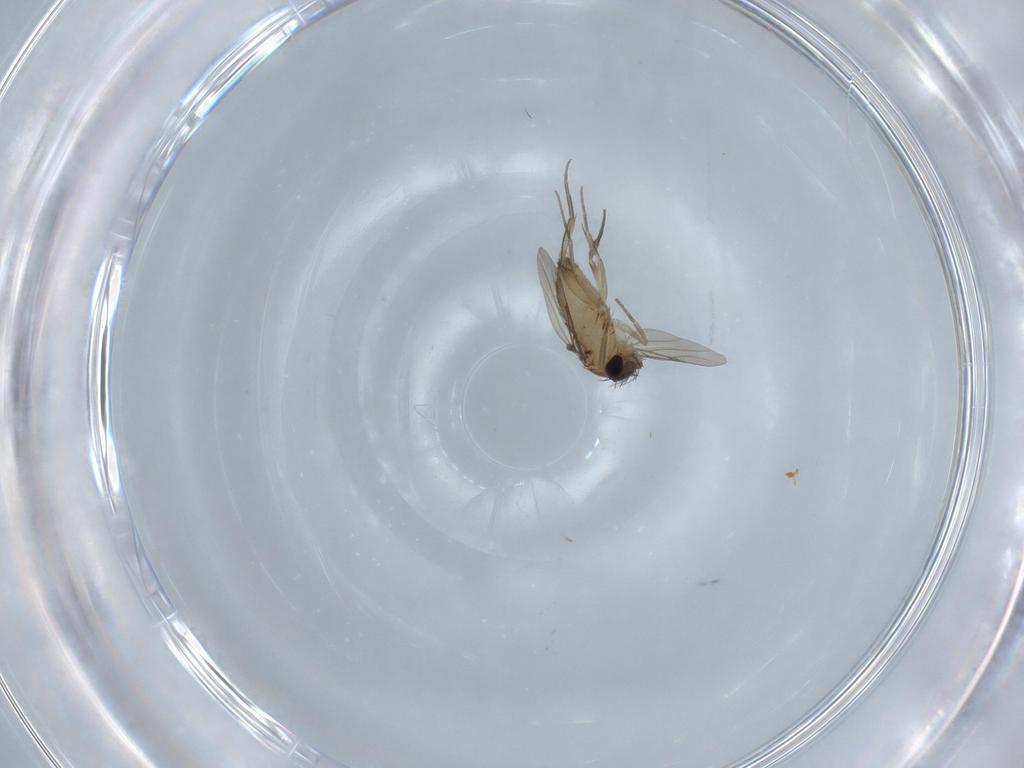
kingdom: Animalia
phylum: Arthropoda
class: Insecta
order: Diptera
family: Phoridae
